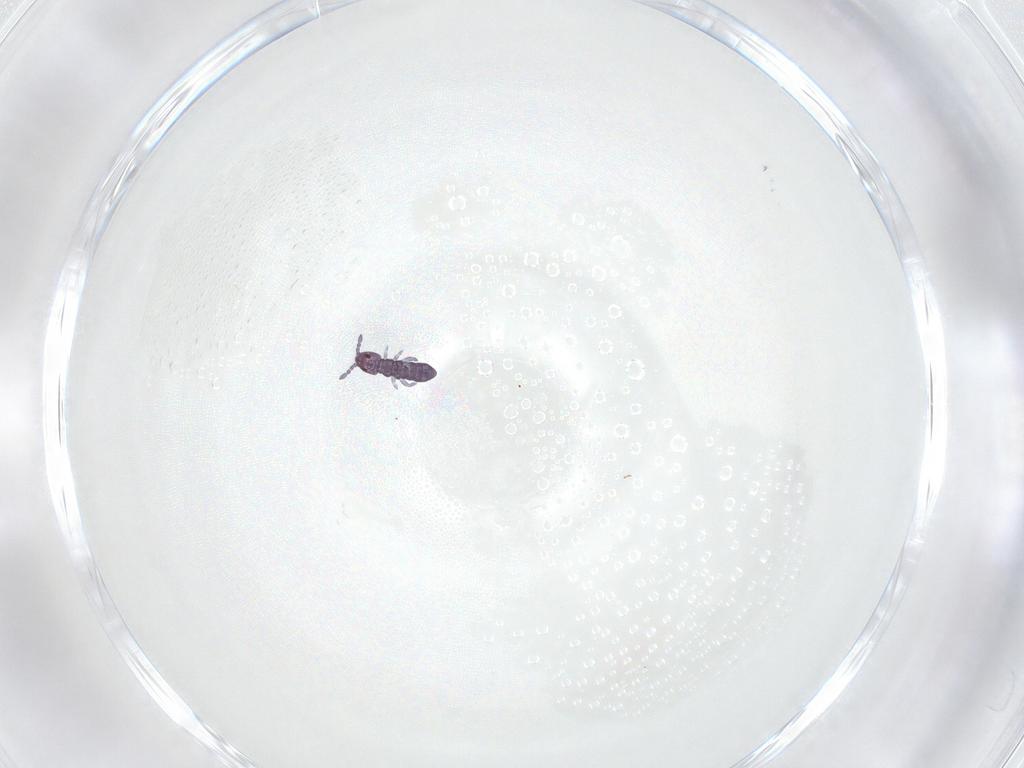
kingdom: Animalia
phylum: Arthropoda
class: Collembola
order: Entomobryomorpha
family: Isotomidae
